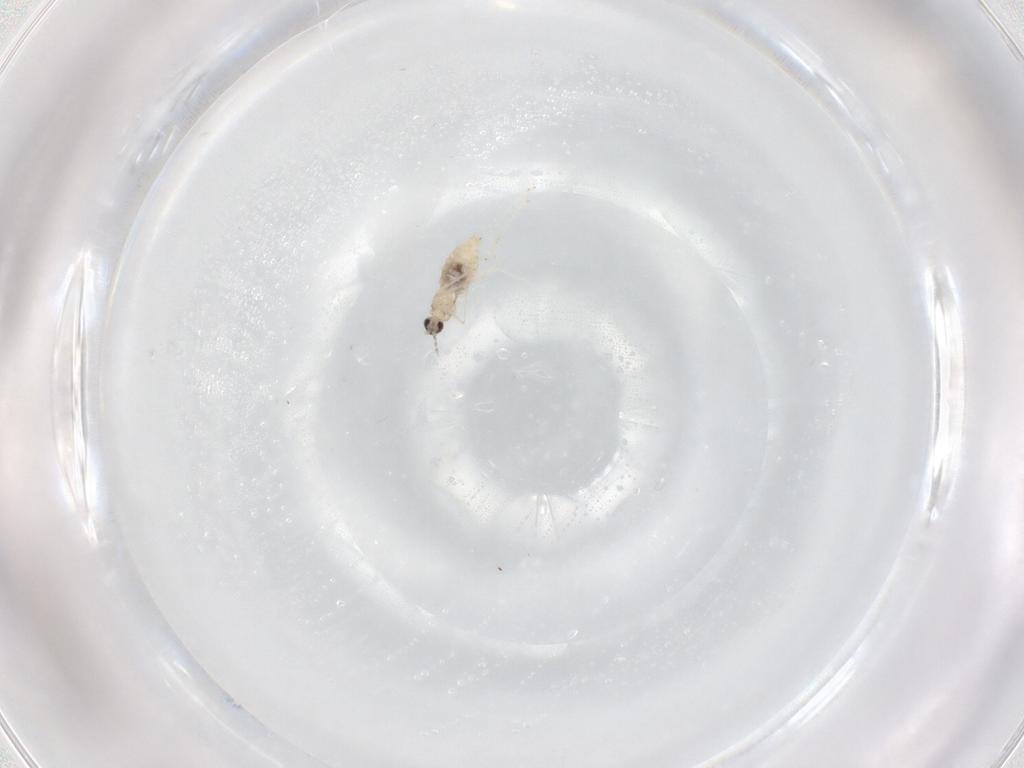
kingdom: Animalia
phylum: Arthropoda
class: Insecta
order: Diptera
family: Cecidomyiidae
